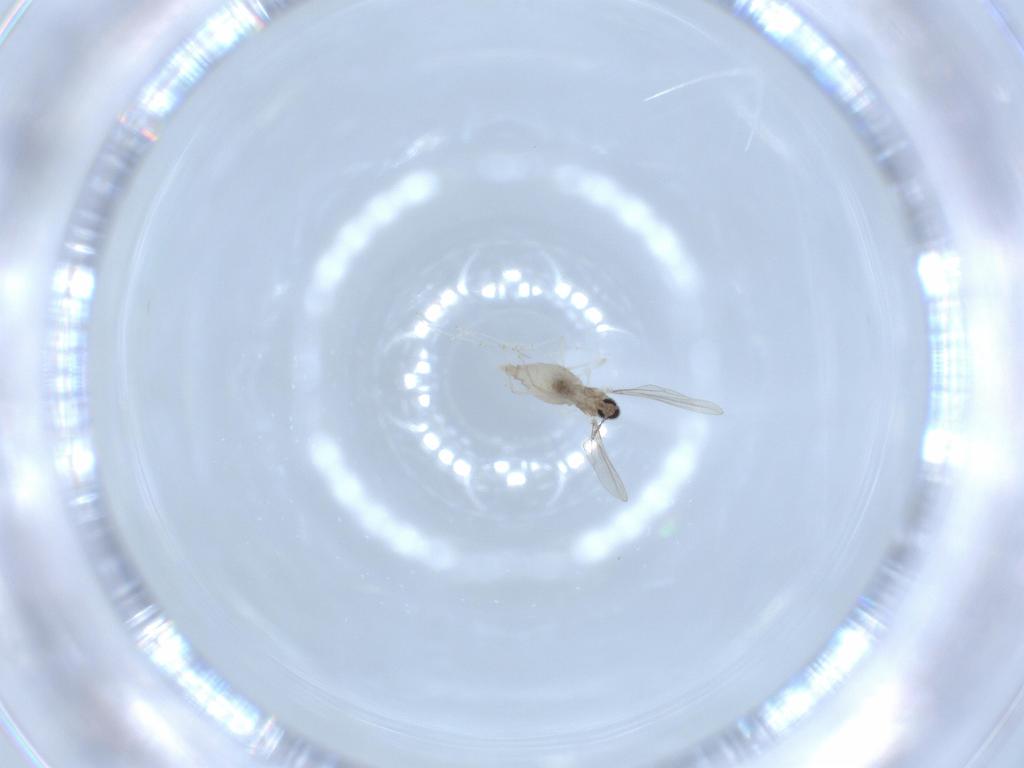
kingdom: Animalia
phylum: Arthropoda
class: Insecta
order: Diptera
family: Cecidomyiidae
